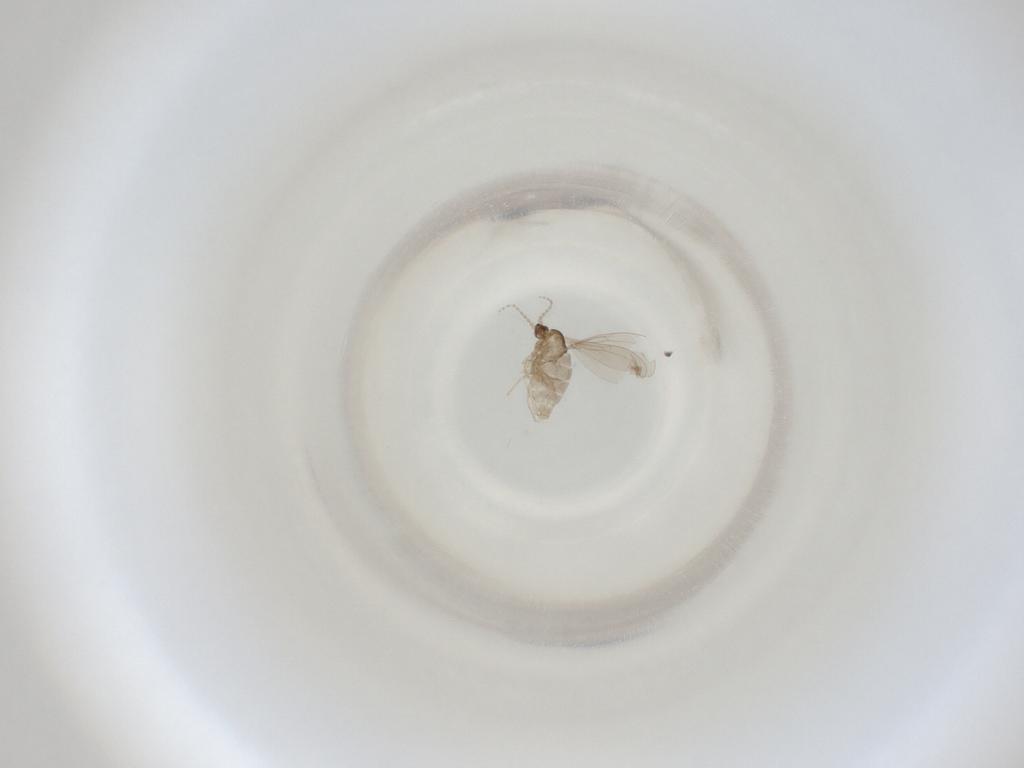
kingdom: Animalia
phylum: Arthropoda
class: Insecta
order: Diptera
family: Cecidomyiidae
